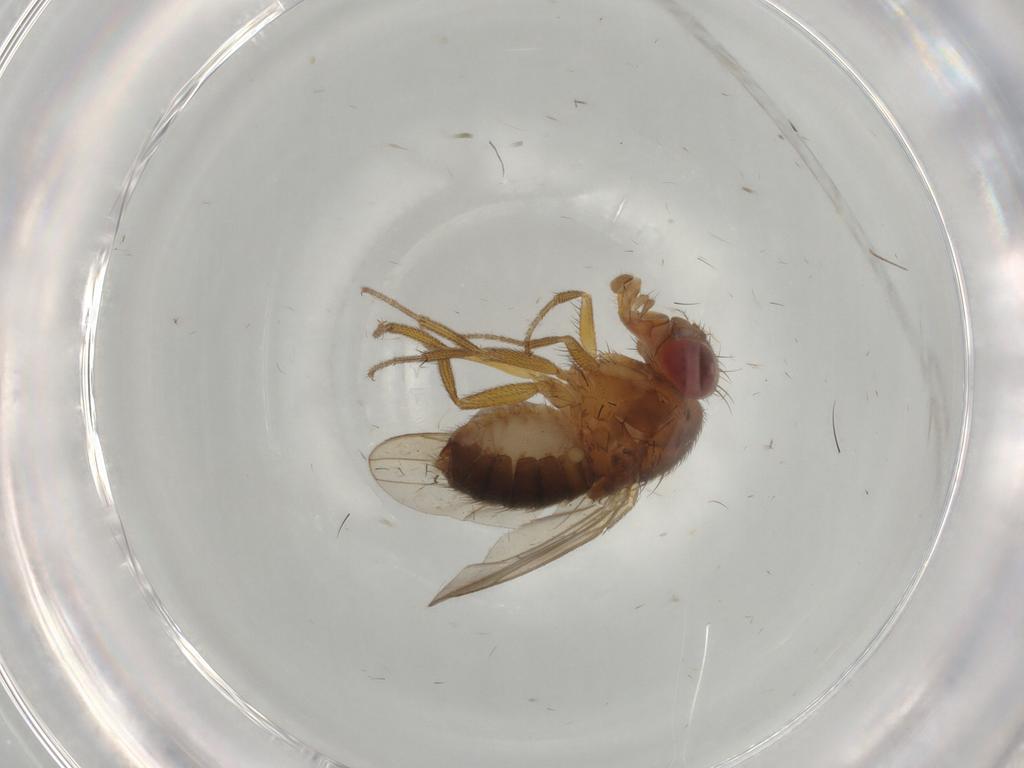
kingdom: Animalia
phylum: Arthropoda
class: Insecta
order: Diptera
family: Drosophilidae
